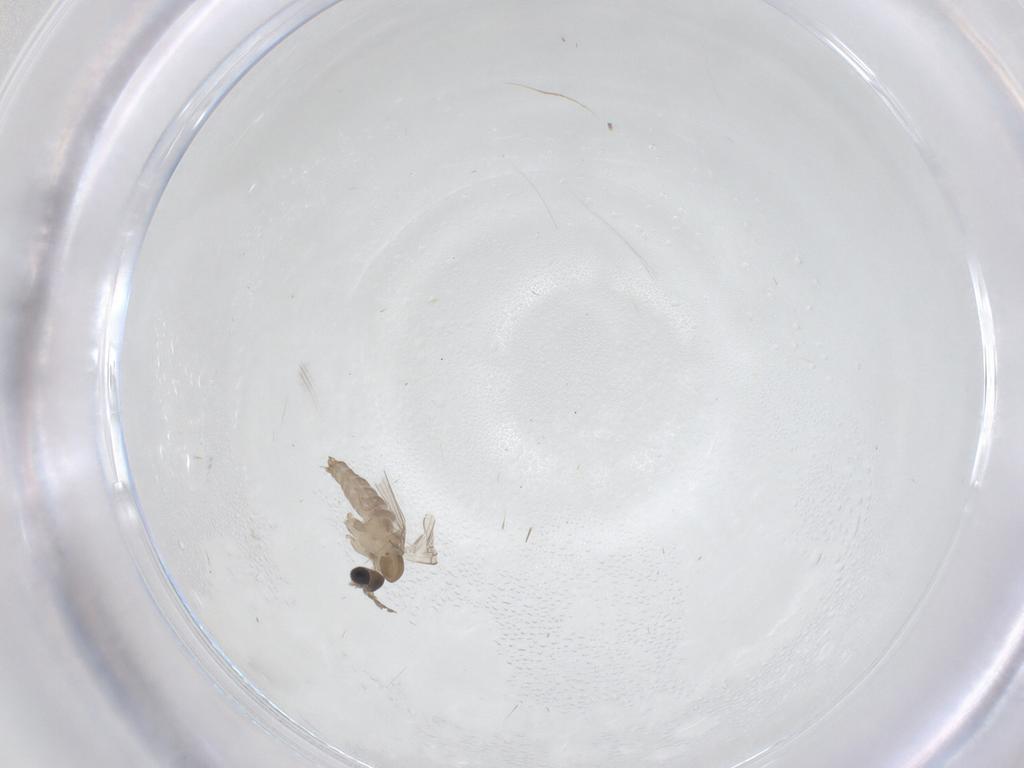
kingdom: Animalia
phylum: Arthropoda
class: Insecta
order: Diptera
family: Psychodidae
